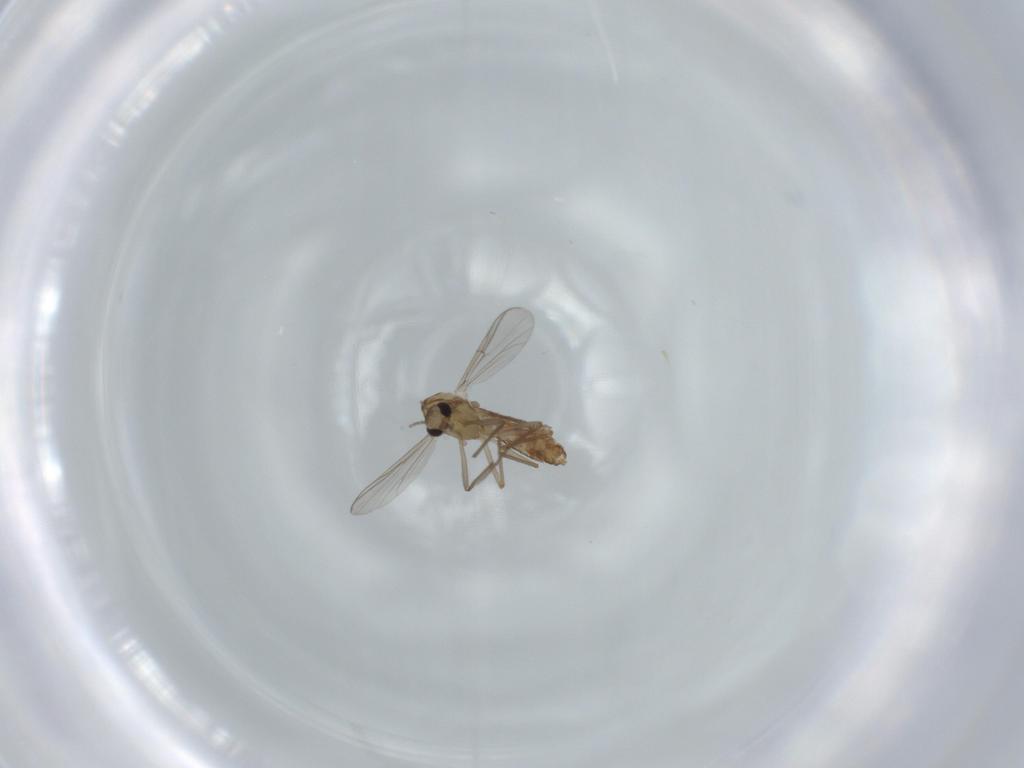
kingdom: Animalia
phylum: Arthropoda
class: Insecta
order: Diptera
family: Chironomidae
